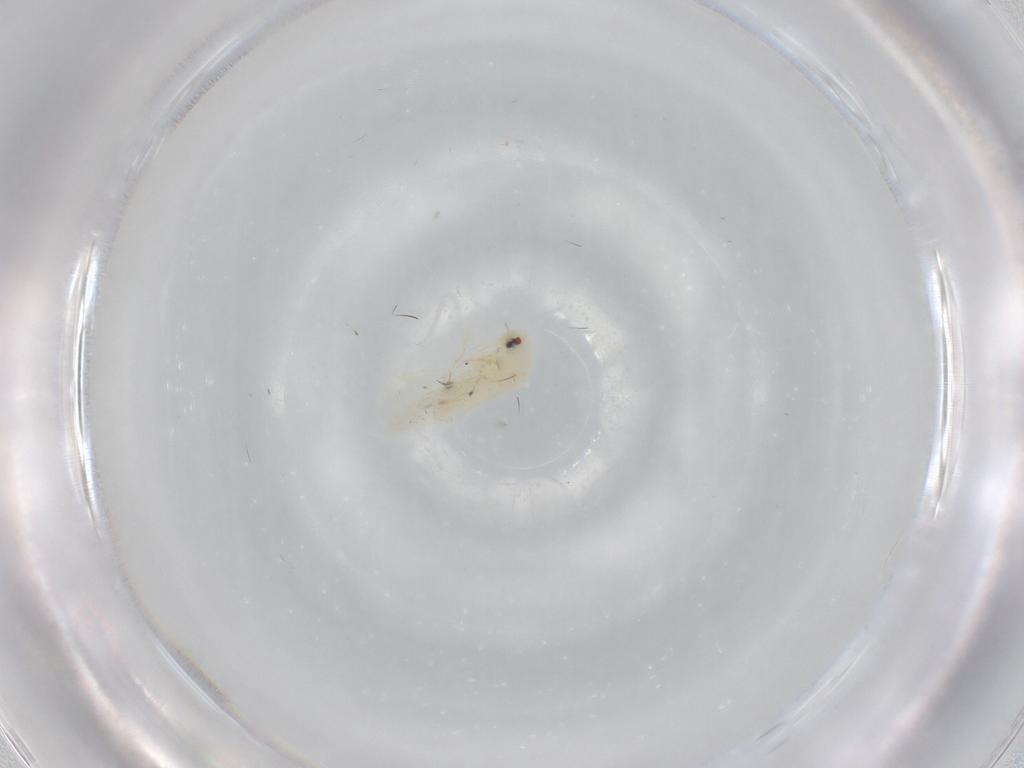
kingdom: Animalia
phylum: Arthropoda
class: Insecta
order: Hemiptera
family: Aleyrodidae
